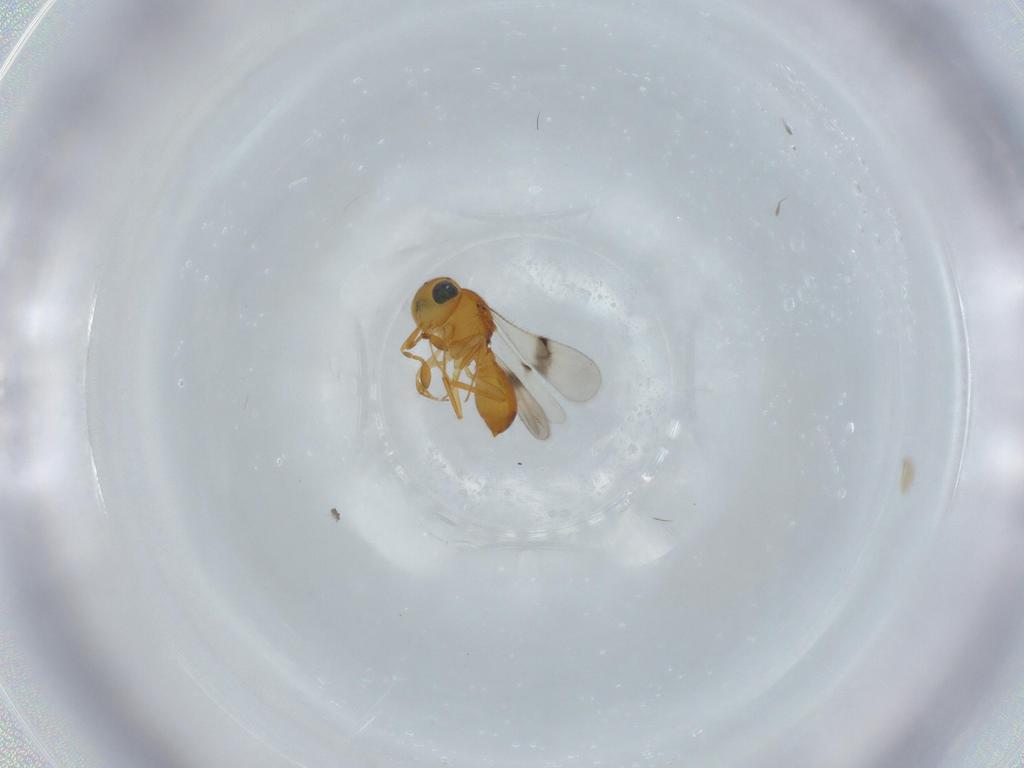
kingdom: Animalia
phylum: Arthropoda
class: Insecta
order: Hymenoptera
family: Scelionidae
